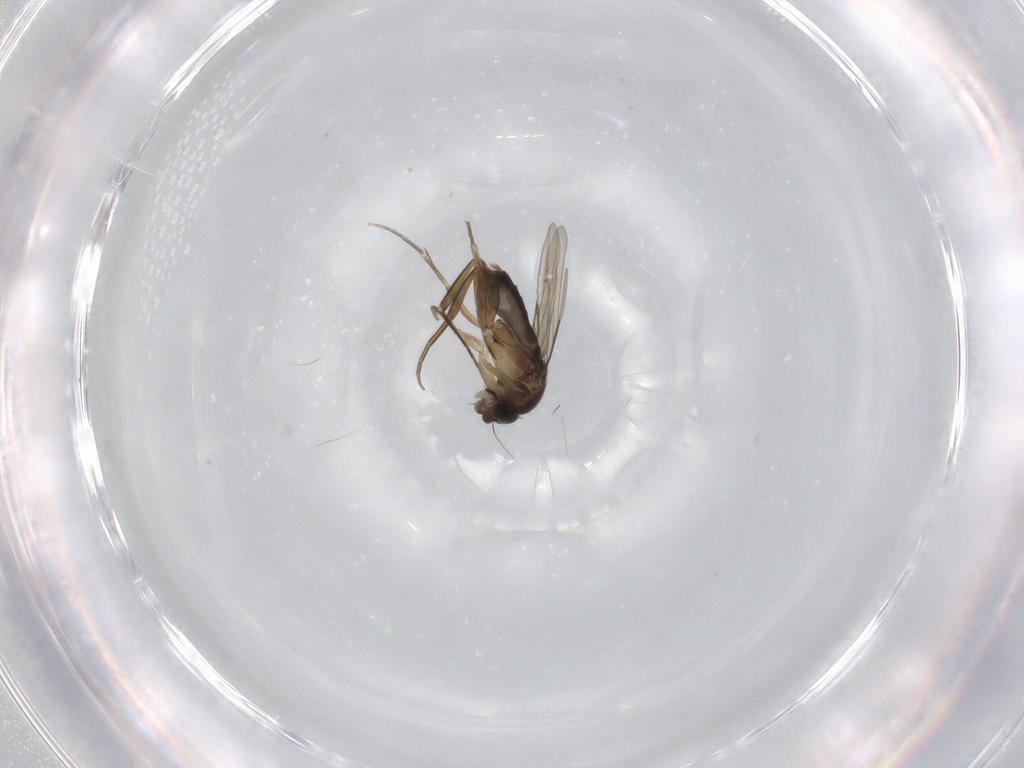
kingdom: Animalia
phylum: Arthropoda
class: Insecta
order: Diptera
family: Phoridae
